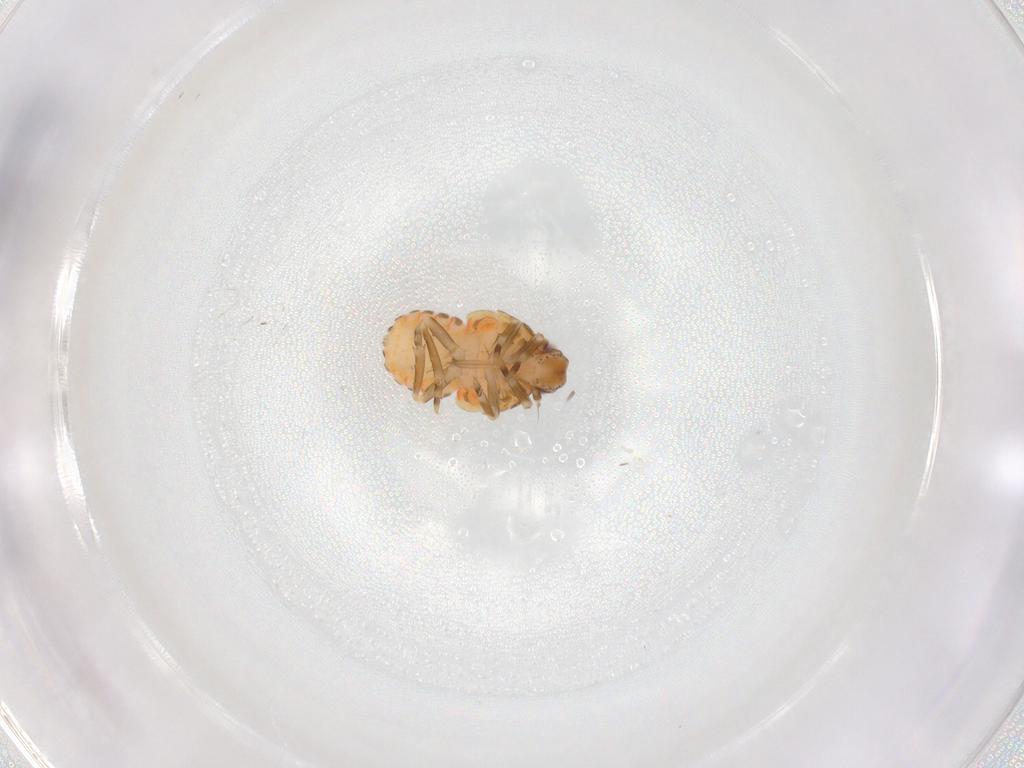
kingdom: Animalia
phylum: Arthropoda
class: Insecta
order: Hemiptera
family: Flatidae
